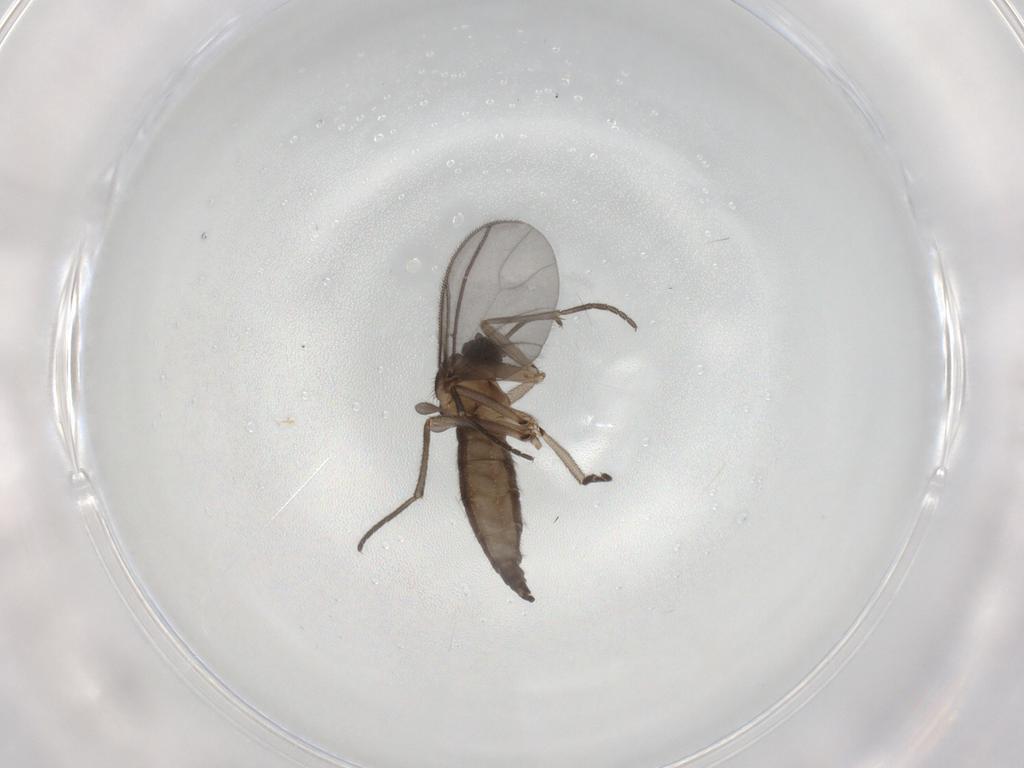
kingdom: Animalia
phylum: Arthropoda
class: Insecta
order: Diptera
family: Sciaridae
